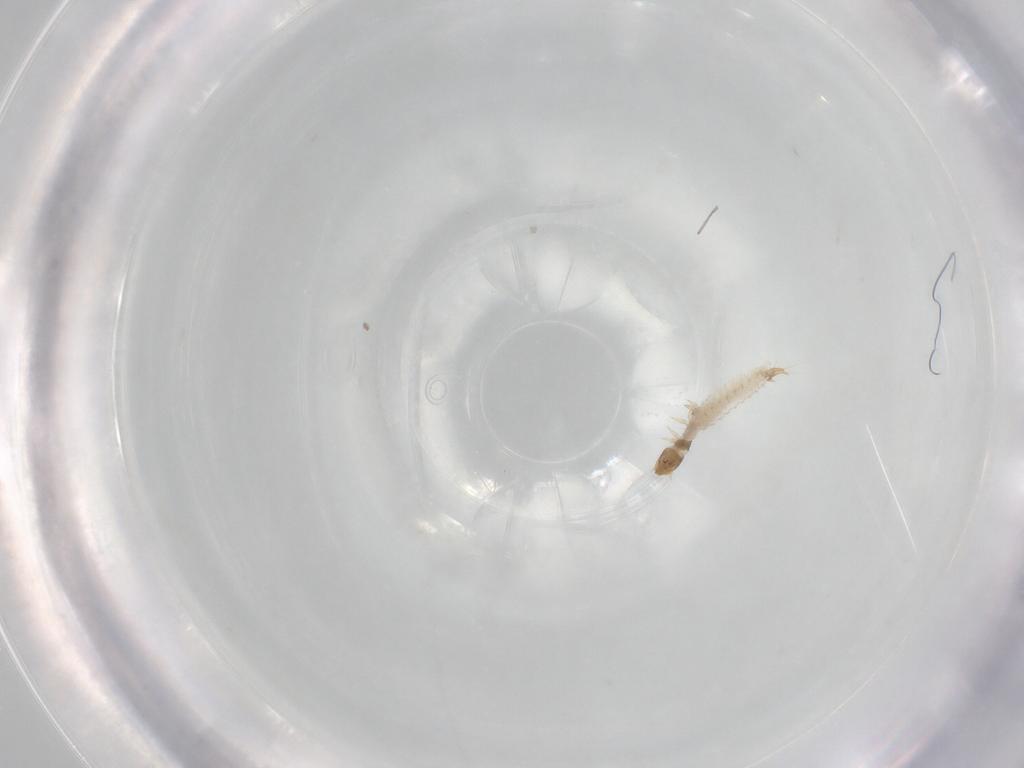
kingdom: Animalia
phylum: Arthropoda
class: Insecta
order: Coleoptera
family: Nitidulidae
